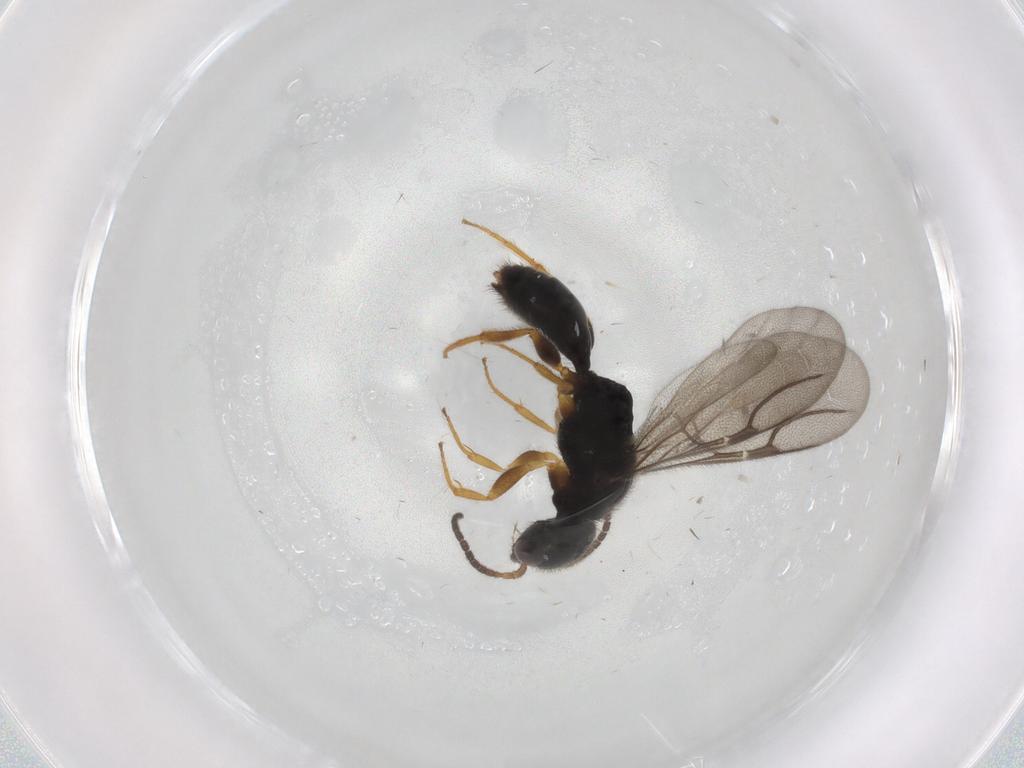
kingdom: Animalia
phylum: Arthropoda
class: Insecta
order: Hymenoptera
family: Bethylidae
